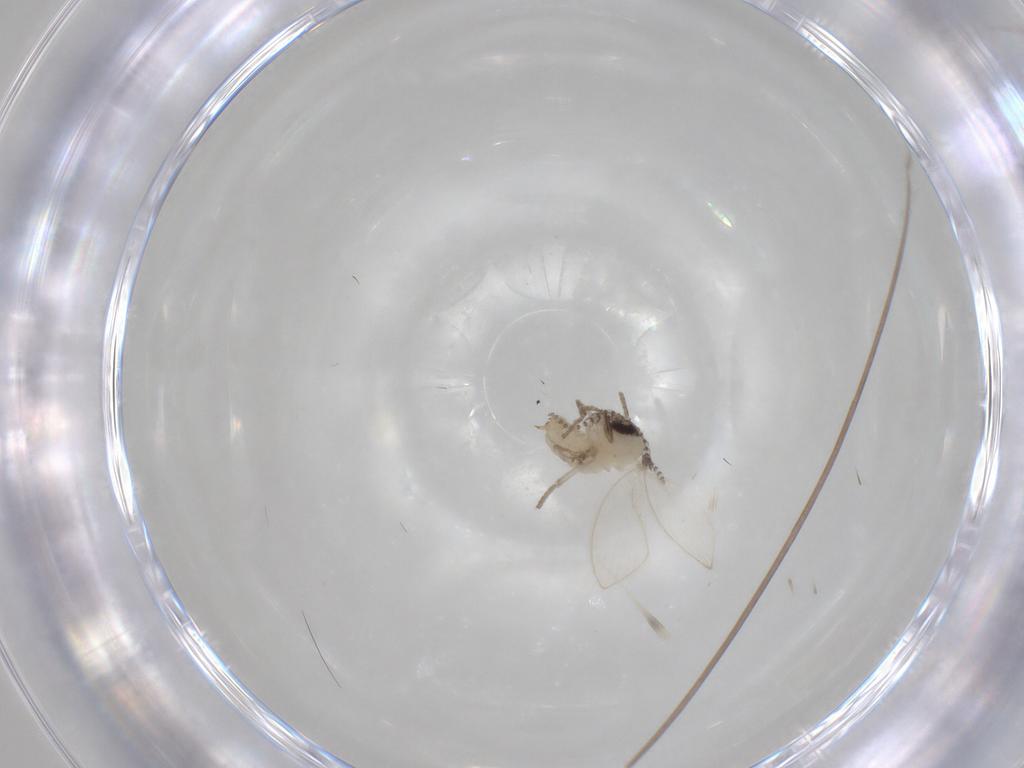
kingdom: Animalia
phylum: Arthropoda
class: Insecta
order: Diptera
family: Psychodidae
